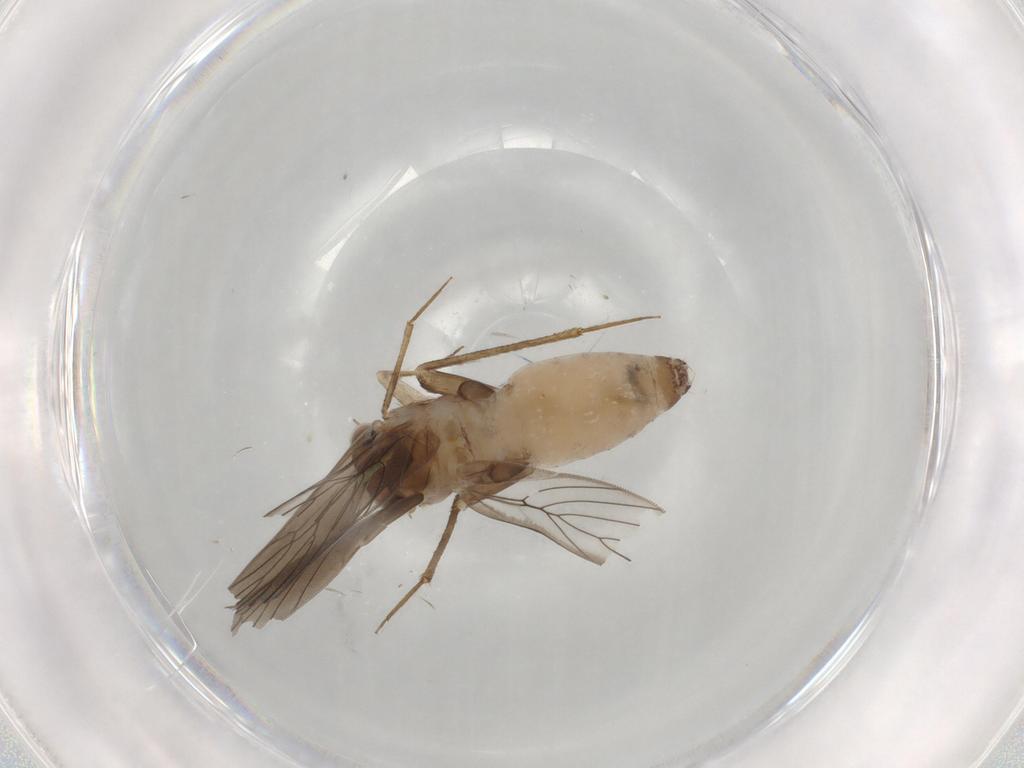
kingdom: Animalia
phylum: Arthropoda
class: Insecta
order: Psocodea
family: Lepidopsocidae
